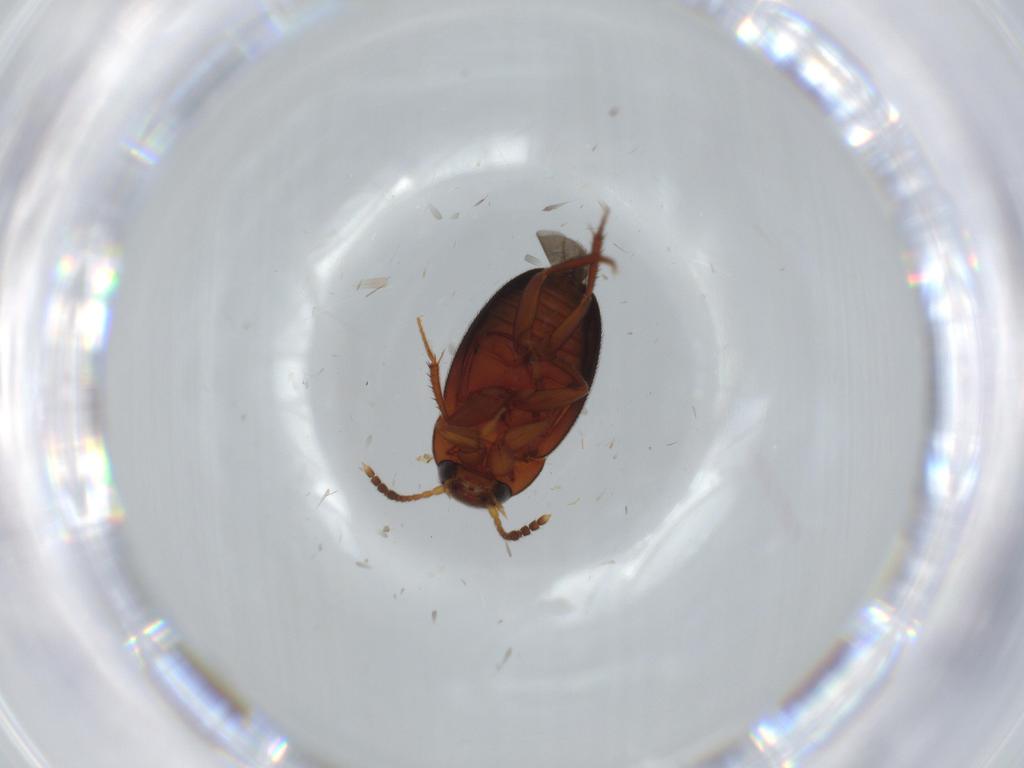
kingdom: Animalia
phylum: Arthropoda
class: Insecta
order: Coleoptera
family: Leiodidae
